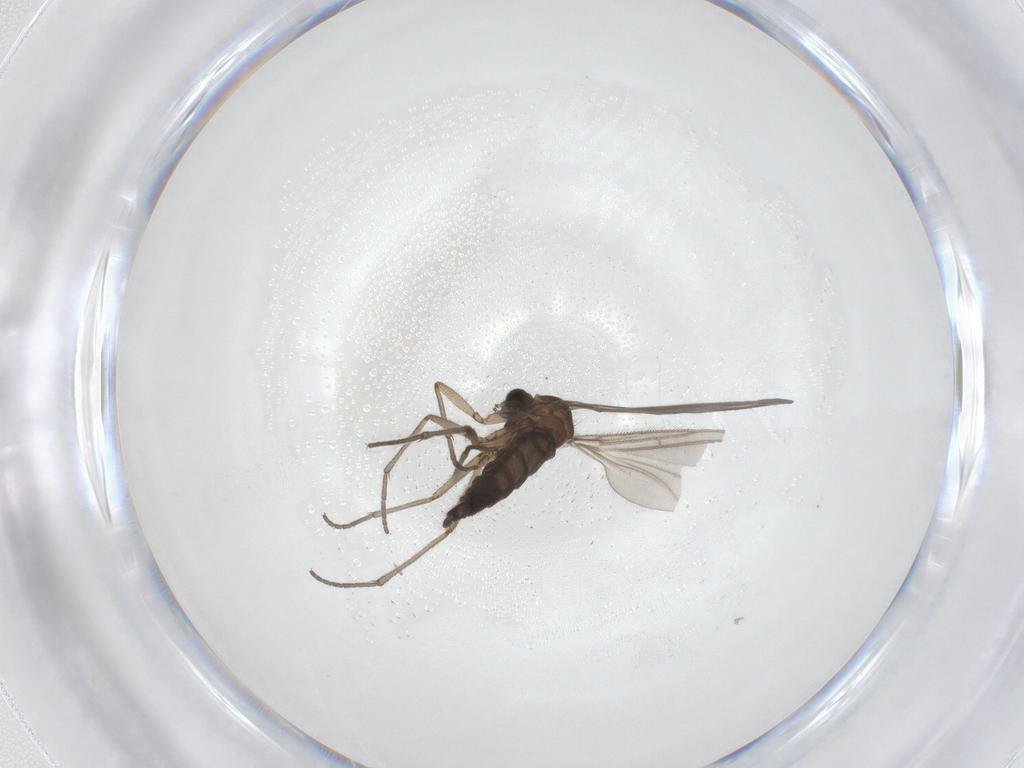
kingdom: Animalia
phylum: Arthropoda
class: Insecta
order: Diptera
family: Sciaridae
